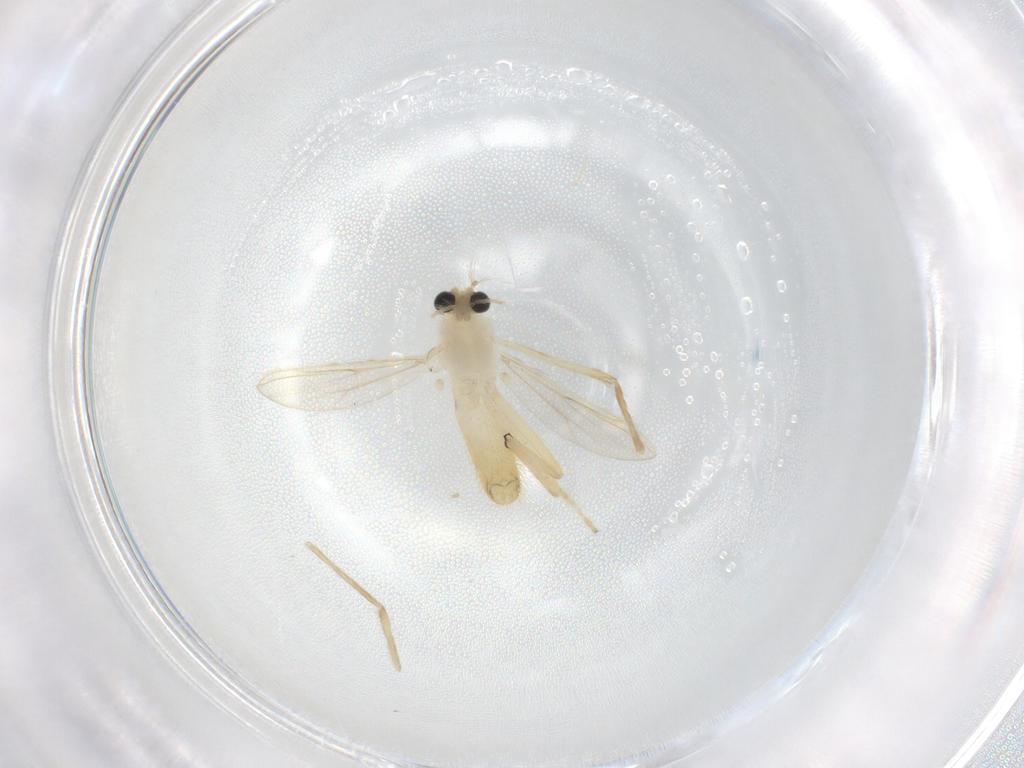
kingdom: Animalia
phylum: Arthropoda
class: Insecta
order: Diptera
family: Chironomidae
